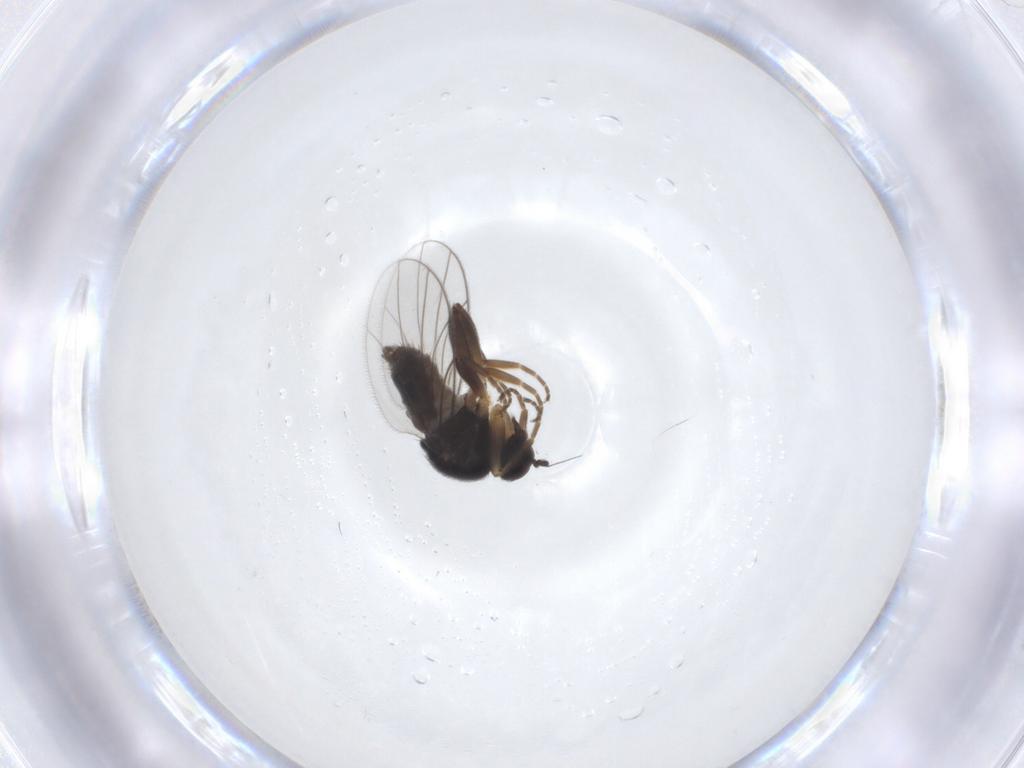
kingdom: Animalia
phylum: Arthropoda
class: Insecta
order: Diptera
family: Hybotidae
